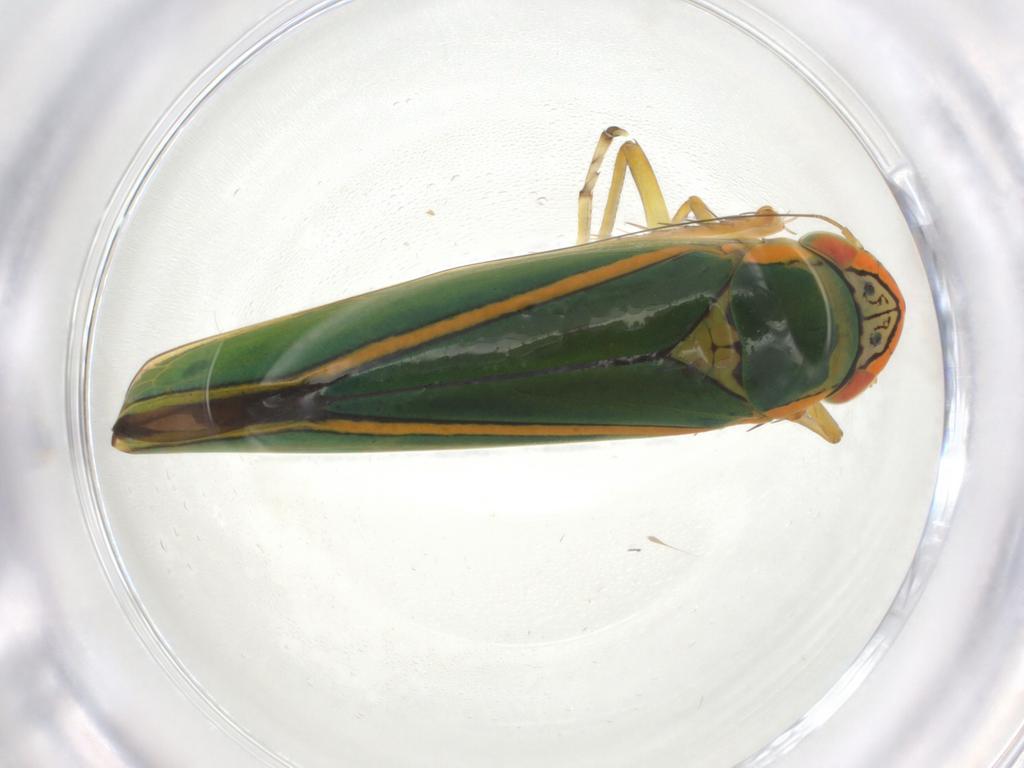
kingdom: Animalia
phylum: Arthropoda
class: Insecta
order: Hemiptera
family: Cicadellidae
